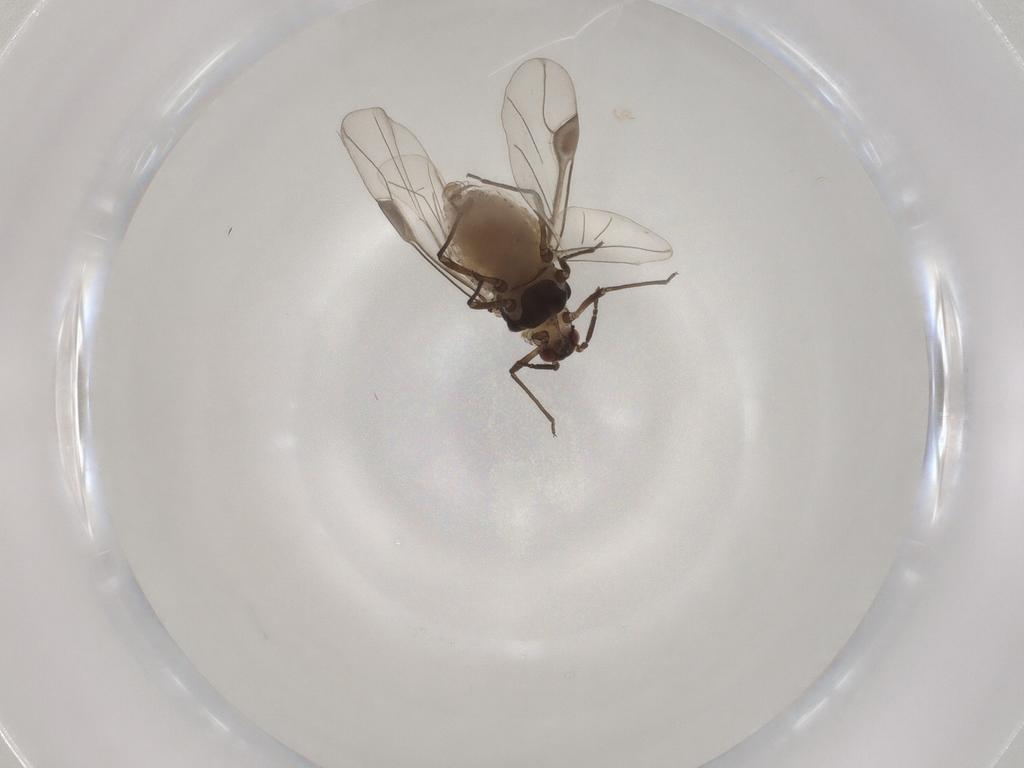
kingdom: Animalia
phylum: Arthropoda
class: Insecta
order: Hemiptera
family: Aphididae
